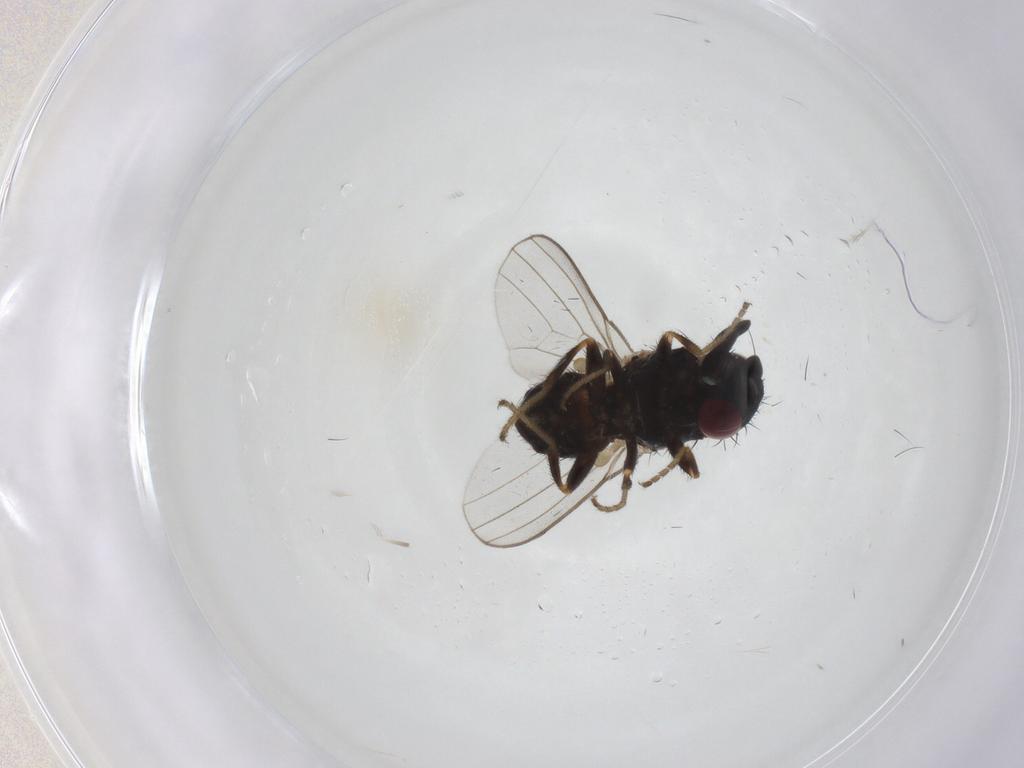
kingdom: Animalia
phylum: Arthropoda
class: Insecta
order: Diptera
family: Milichiidae
